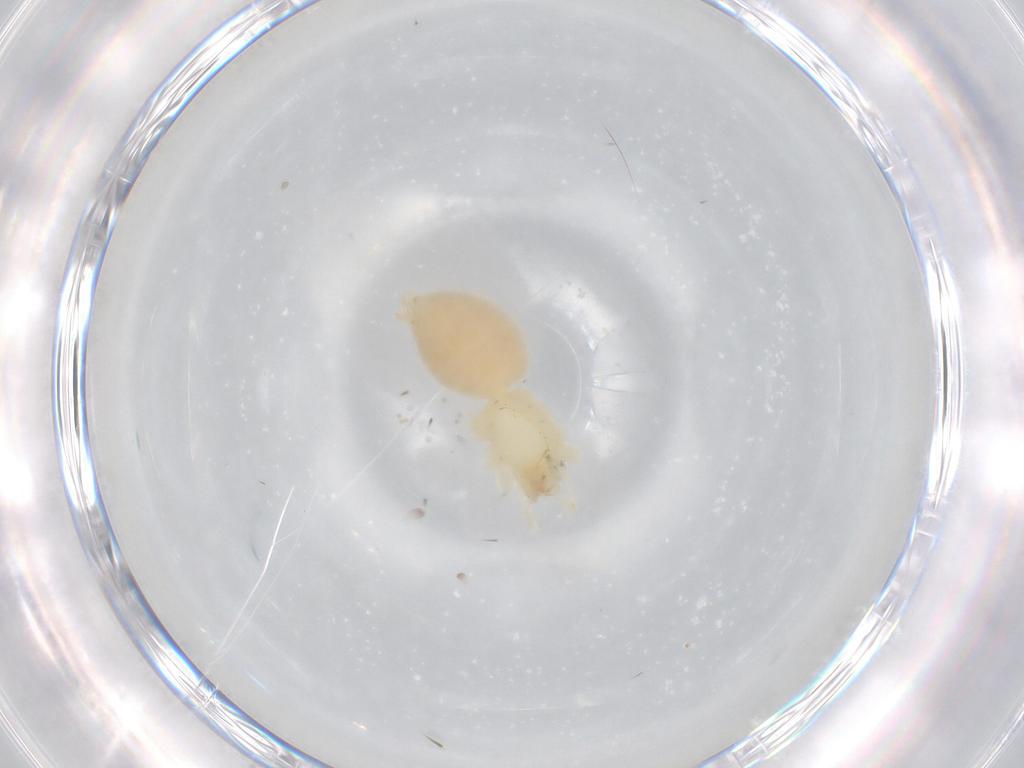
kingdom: Animalia
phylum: Arthropoda
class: Arachnida
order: Araneae
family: Anyphaenidae
